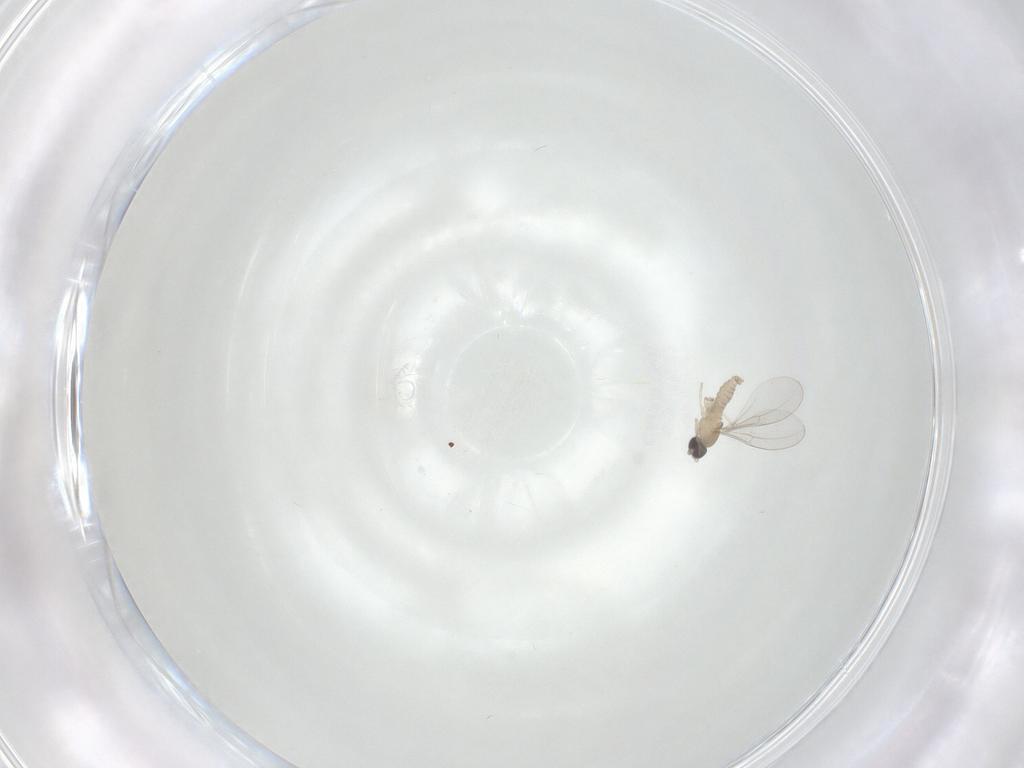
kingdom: Animalia
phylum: Arthropoda
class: Insecta
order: Diptera
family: Cecidomyiidae
